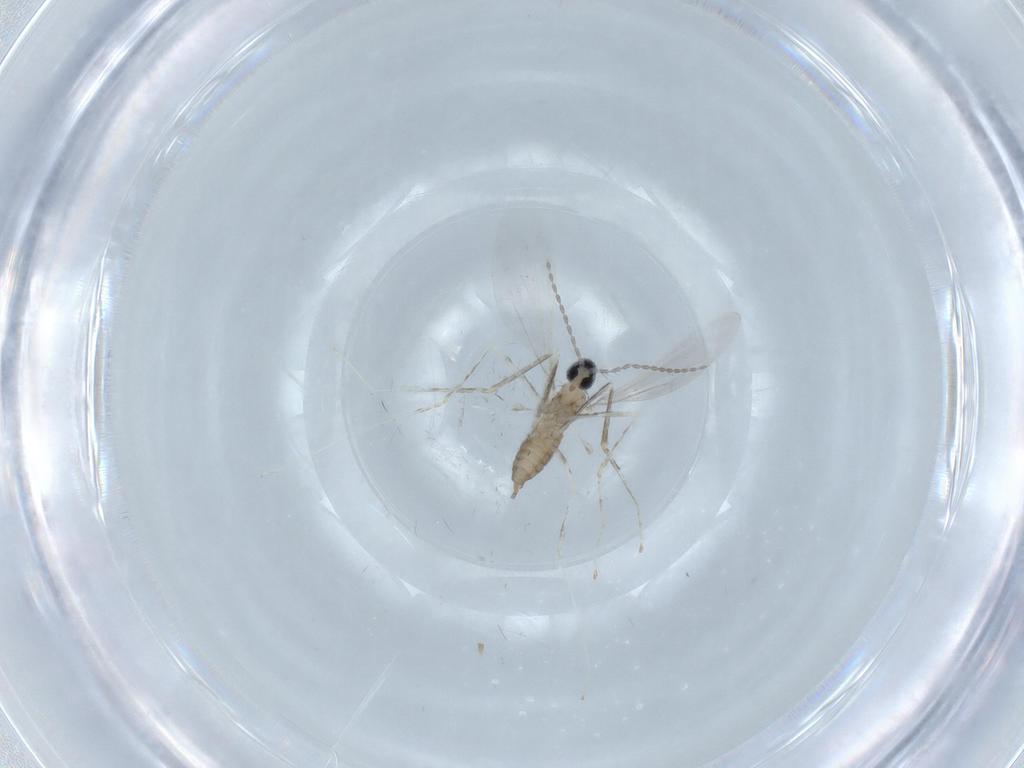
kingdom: Animalia
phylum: Arthropoda
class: Insecta
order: Diptera
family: Cecidomyiidae
